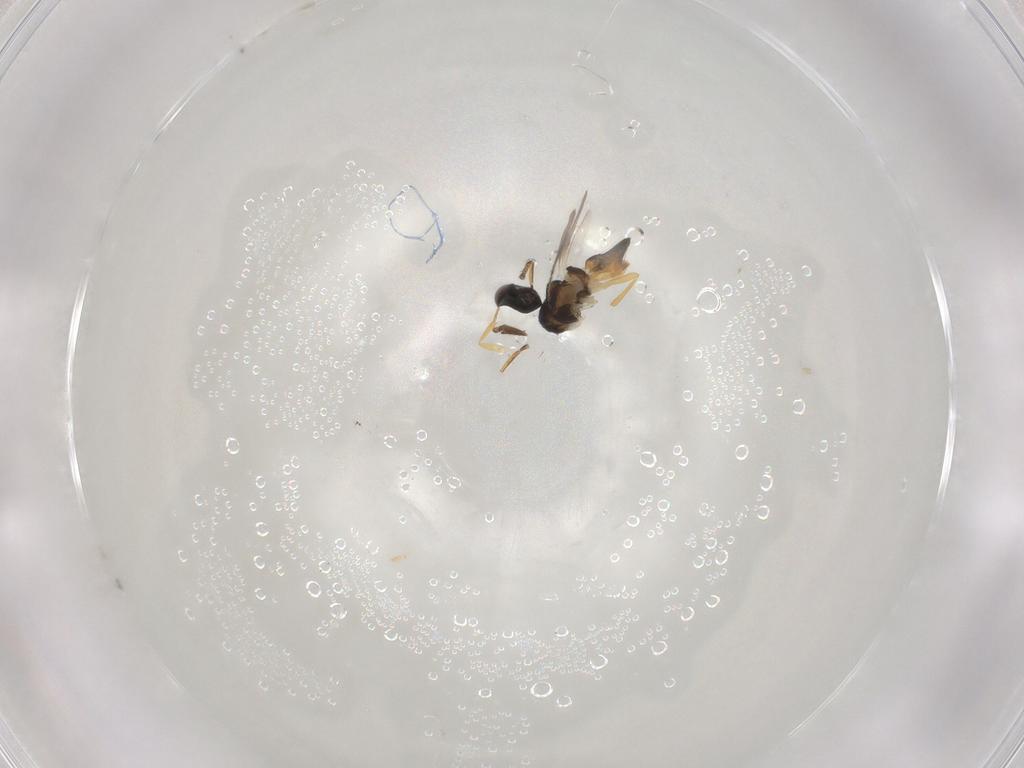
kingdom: Animalia
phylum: Arthropoda
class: Insecta
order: Hymenoptera
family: Encyrtidae
